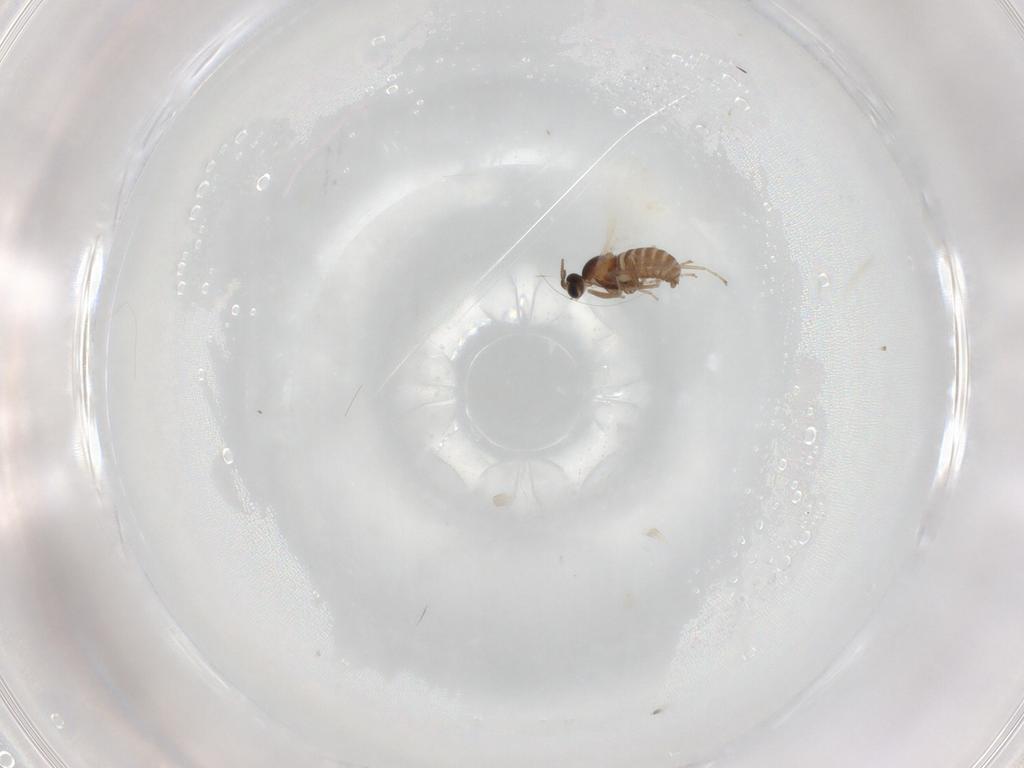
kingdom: Animalia
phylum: Arthropoda
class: Insecta
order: Diptera
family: Cecidomyiidae
